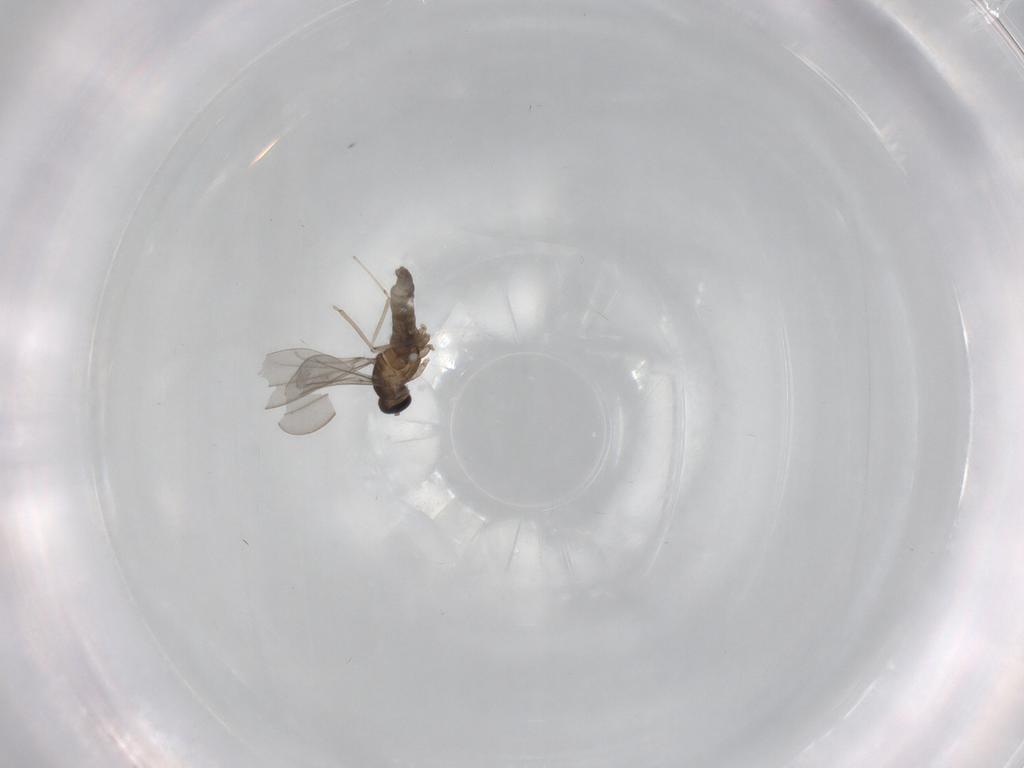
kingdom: Animalia
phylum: Arthropoda
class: Insecta
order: Diptera
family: Cecidomyiidae
